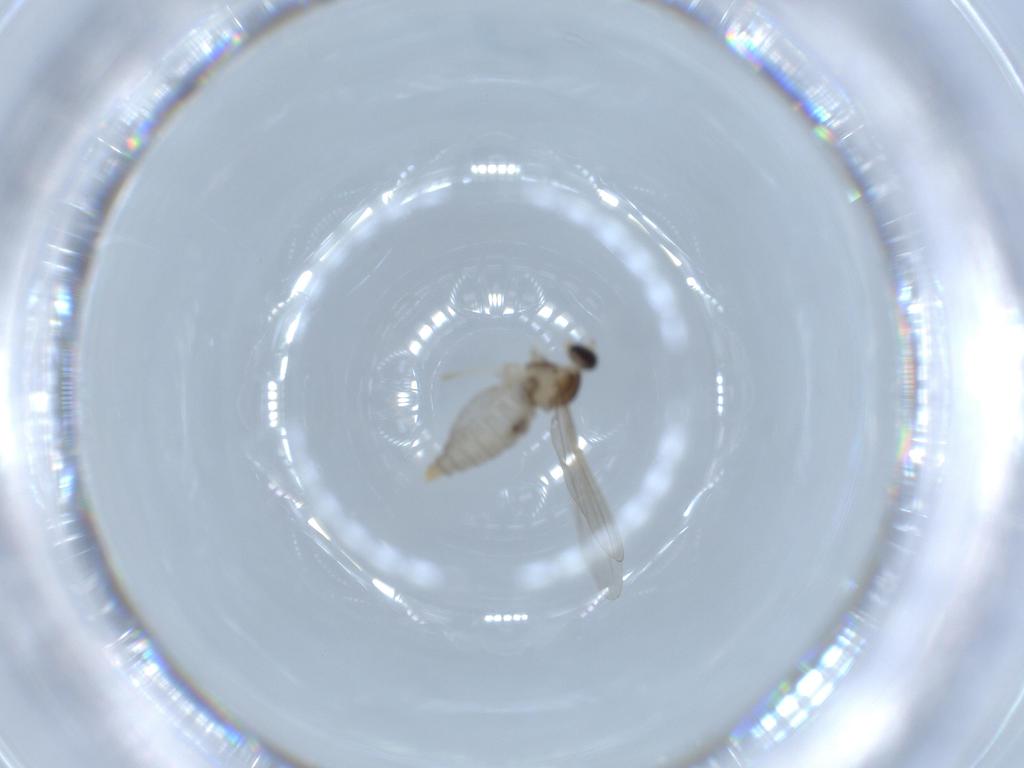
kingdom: Animalia
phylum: Arthropoda
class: Insecta
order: Diptera
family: Cecidomyiidae
